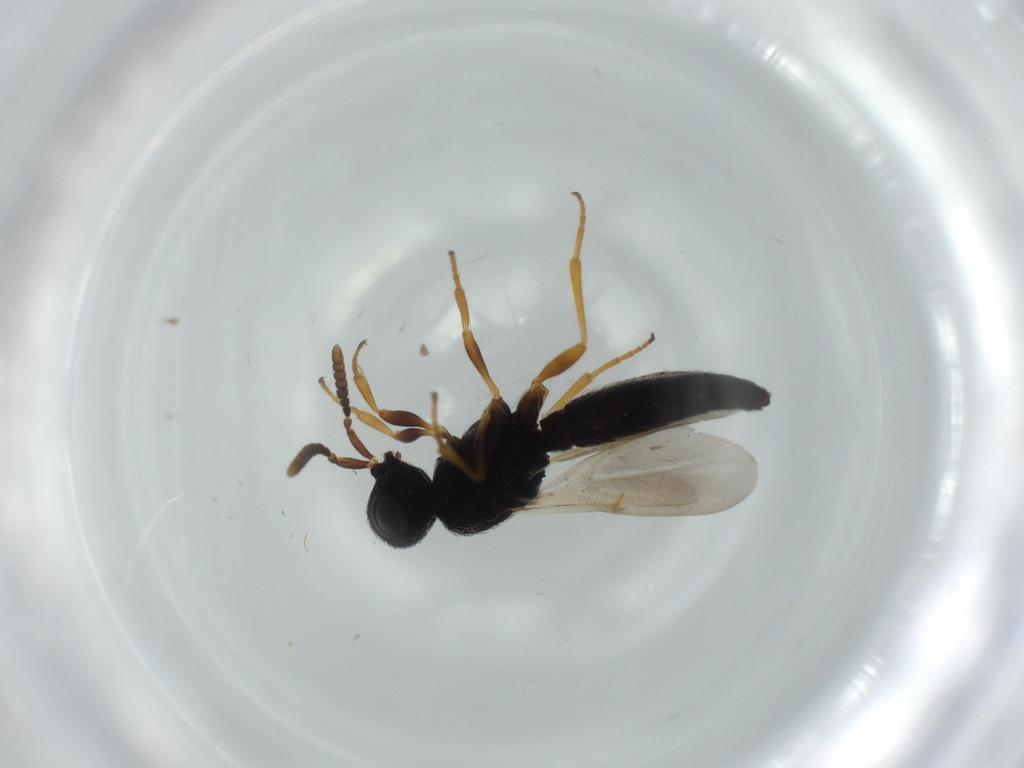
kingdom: Animalia
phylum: Arthropoda
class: Insecta
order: Hymenoptera
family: Scelionidae
